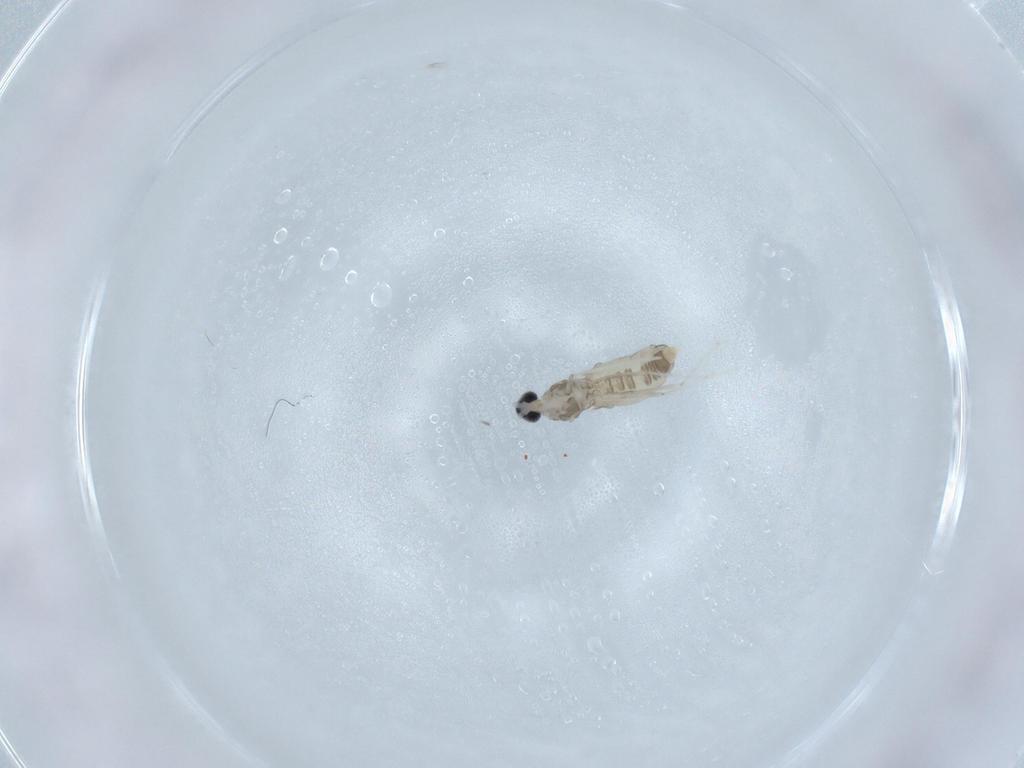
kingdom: Animalia
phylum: Arthropoda
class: Insecta
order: Diptera
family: Cecidomyiidae
